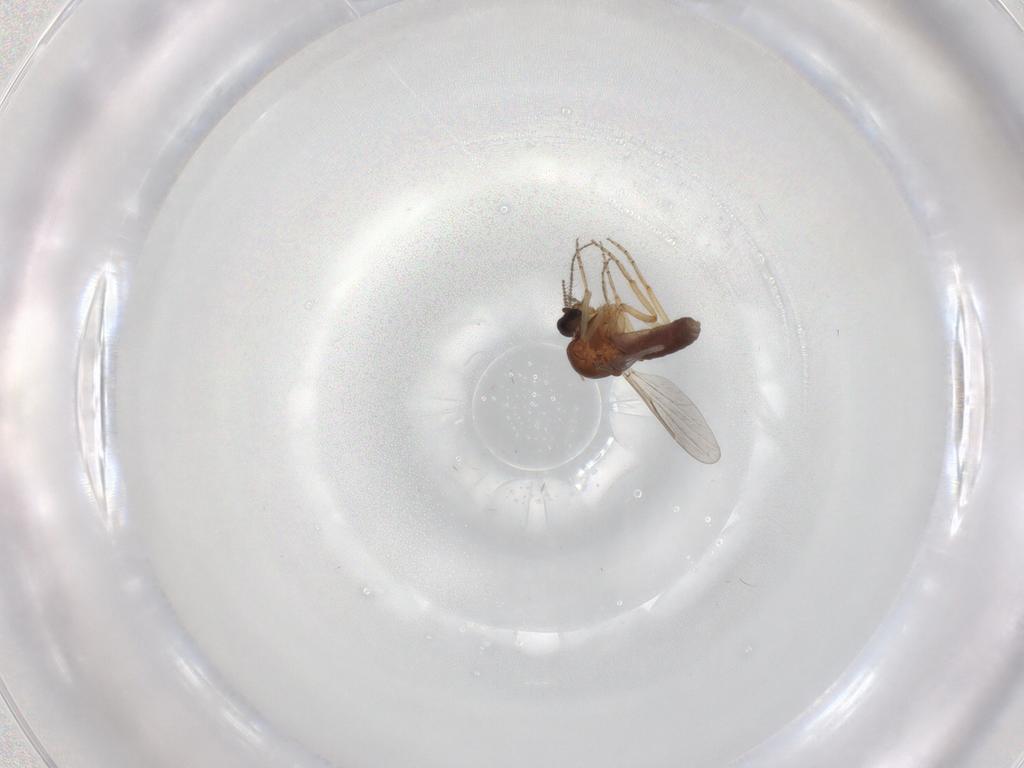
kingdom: Animalia
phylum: Arthropoda
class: Insecta
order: Diptera
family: Ceratopogonidae
